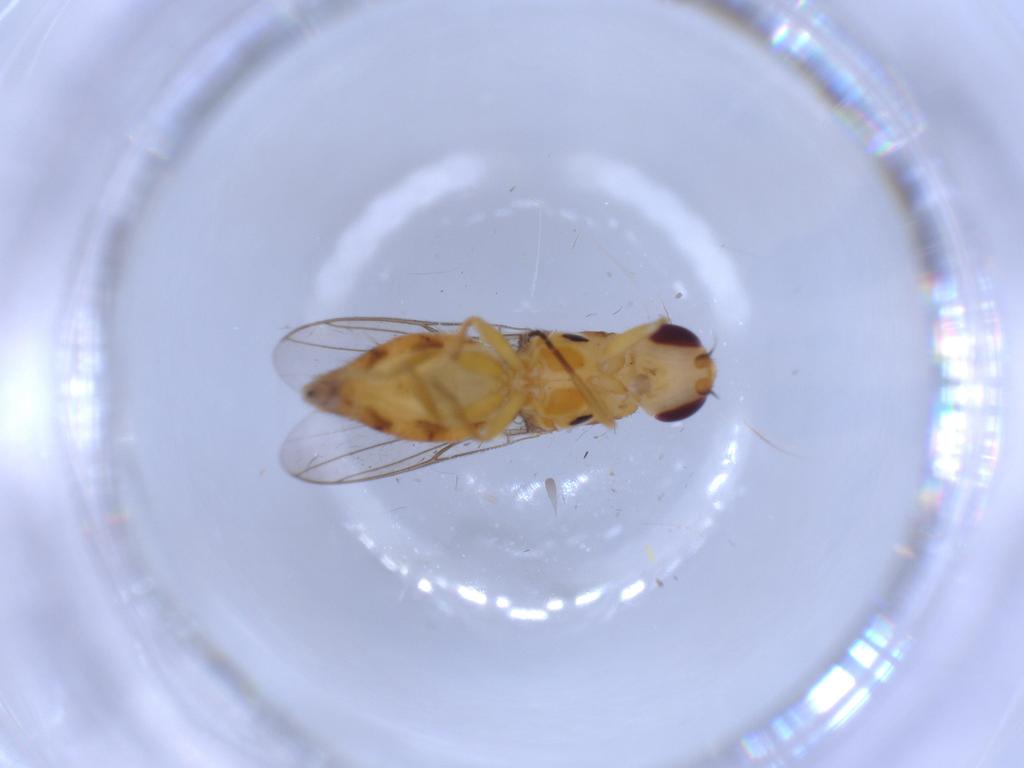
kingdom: Animalia
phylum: Arthropoda
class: Insecta
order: Diptera
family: Chloropidae
